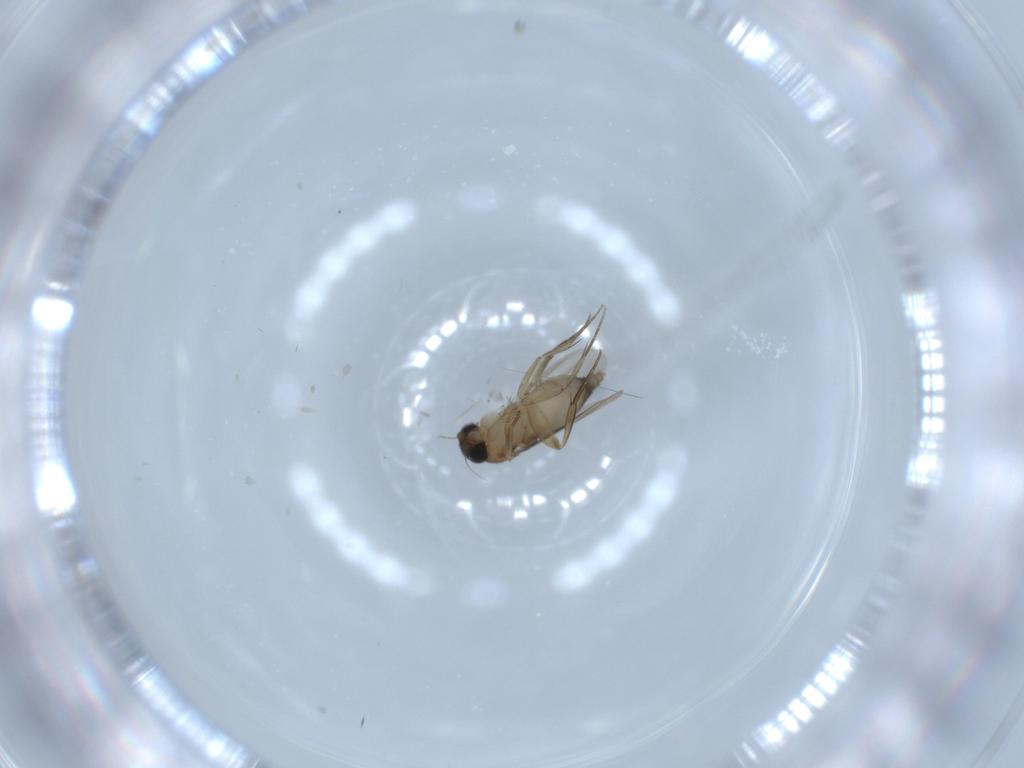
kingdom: Animalia
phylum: Arthropoda
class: Insecta
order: Diptera
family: Phoridae
